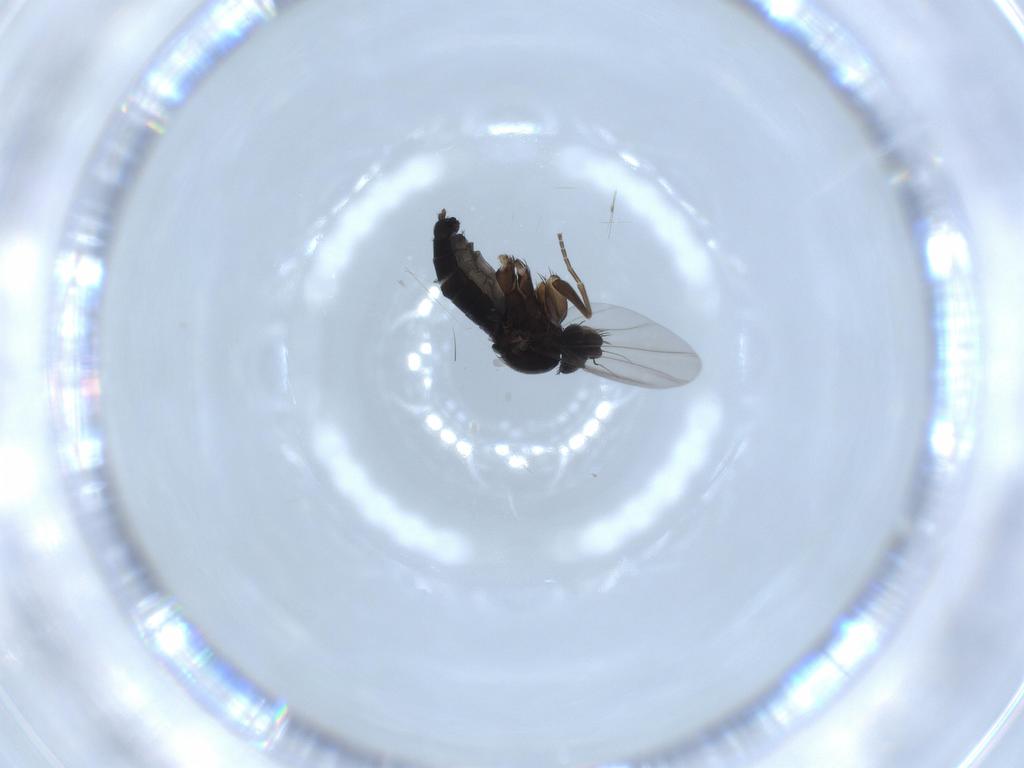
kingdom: Animalia
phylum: Arthropoda
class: Insecta
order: Diptera
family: Phoridae
